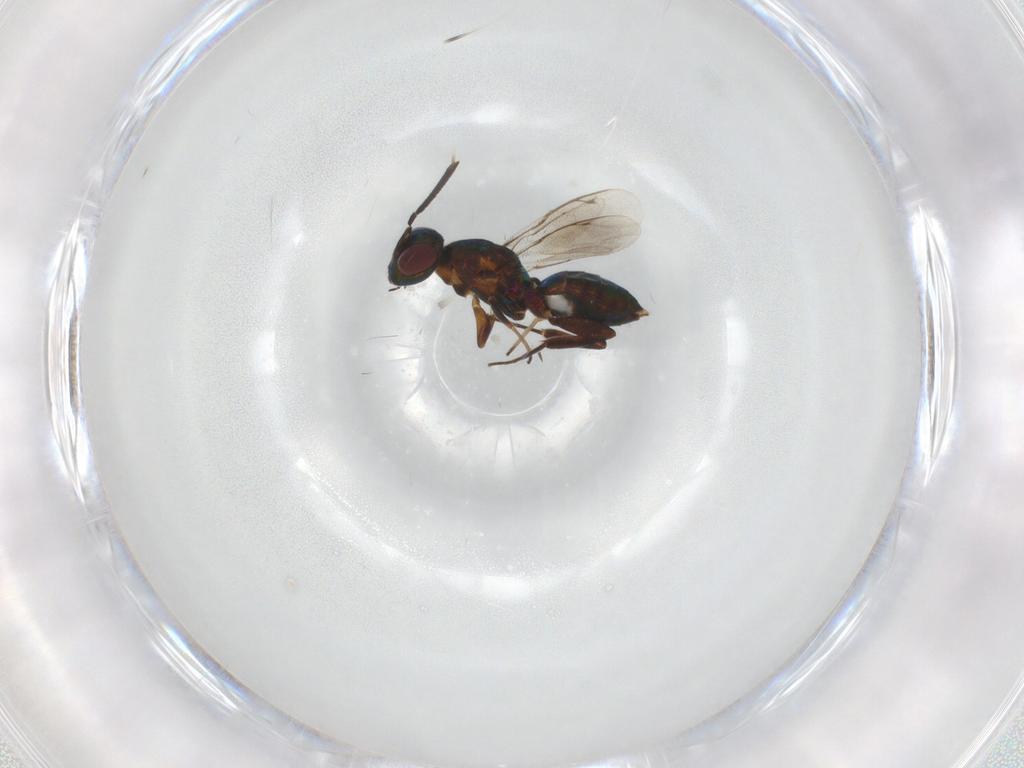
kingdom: Animalia
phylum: Arthropoda
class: Insecta
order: Hymenoptera
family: Eupelmidae
